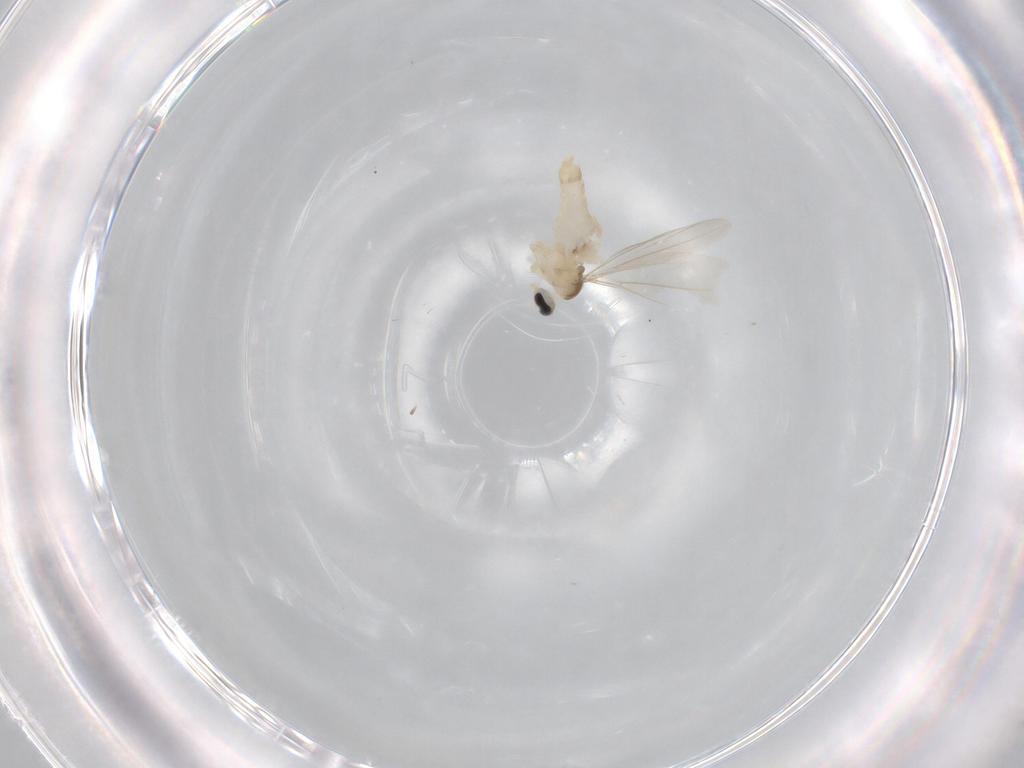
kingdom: Animalia
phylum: Arthropoda
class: Insecta
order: Diptera
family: Cecidomyiidae
